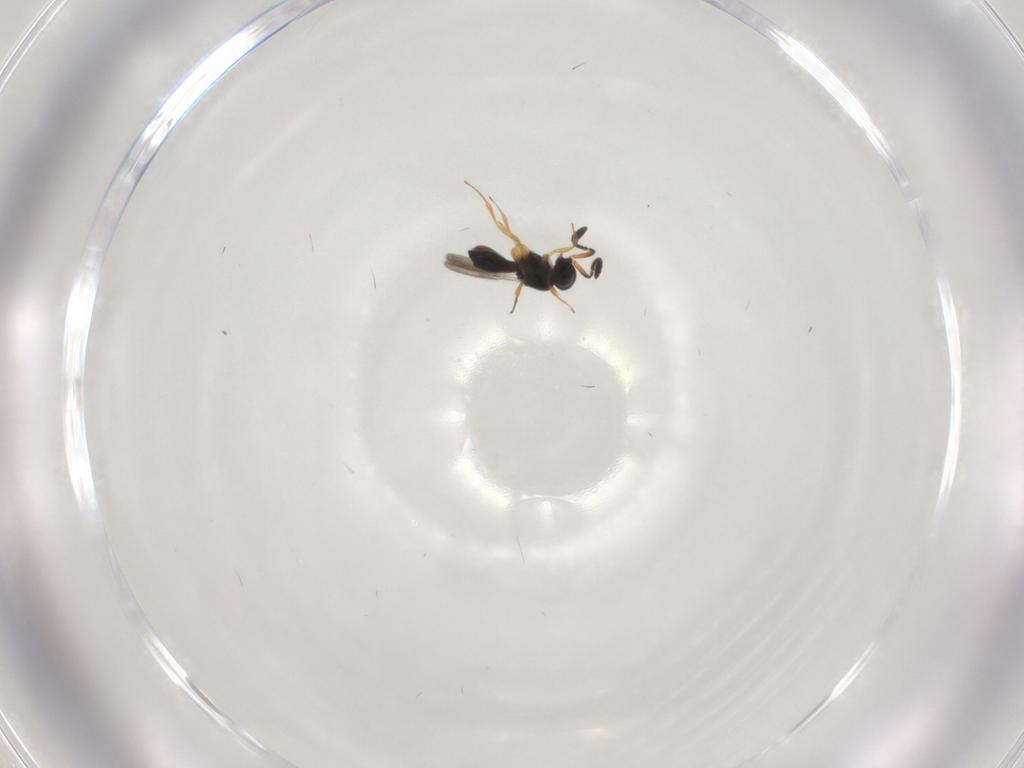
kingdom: Animalia
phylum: Arthropoda
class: Insecta
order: Hymenoptera
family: Scelionidae
